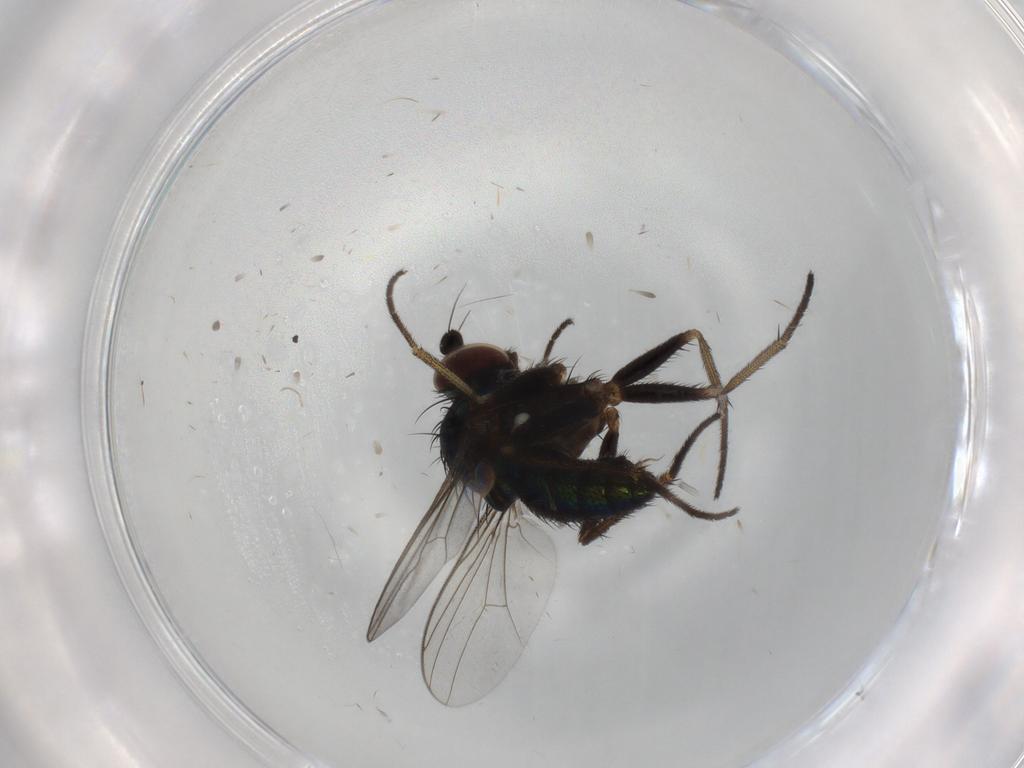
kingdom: Animalia
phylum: Arthropoda
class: Insecta
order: Diptera
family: Dolichopodidae
